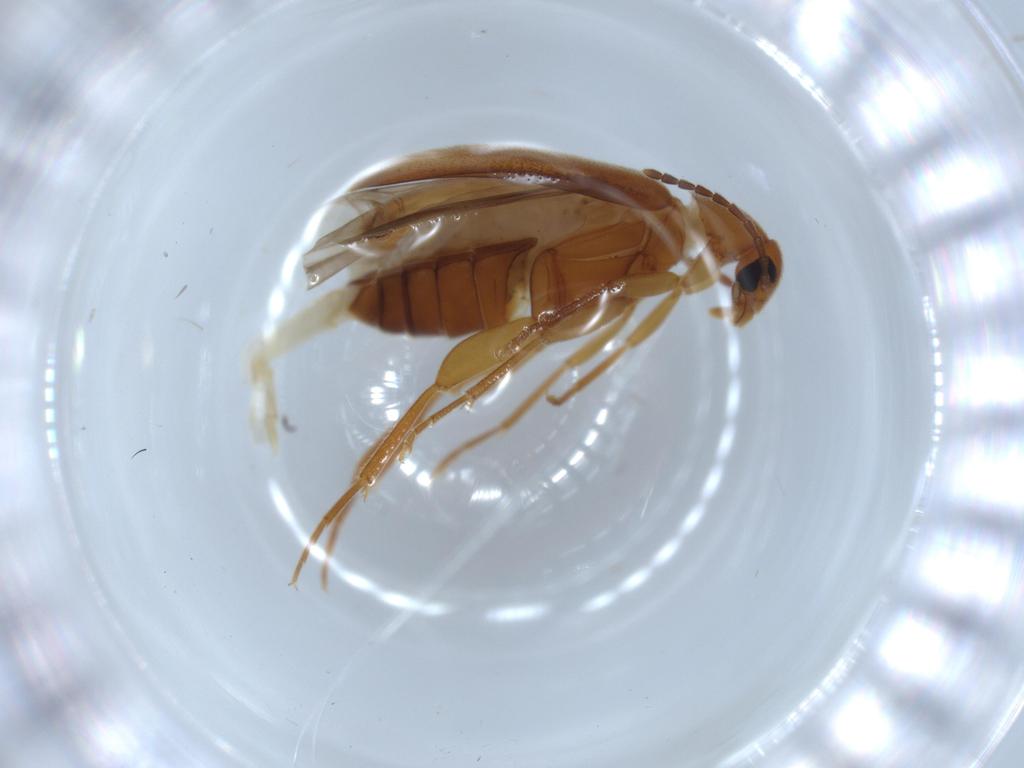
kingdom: Animalia
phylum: Arthropoda
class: Insecta
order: Coleoptera
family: Scraptiidae
